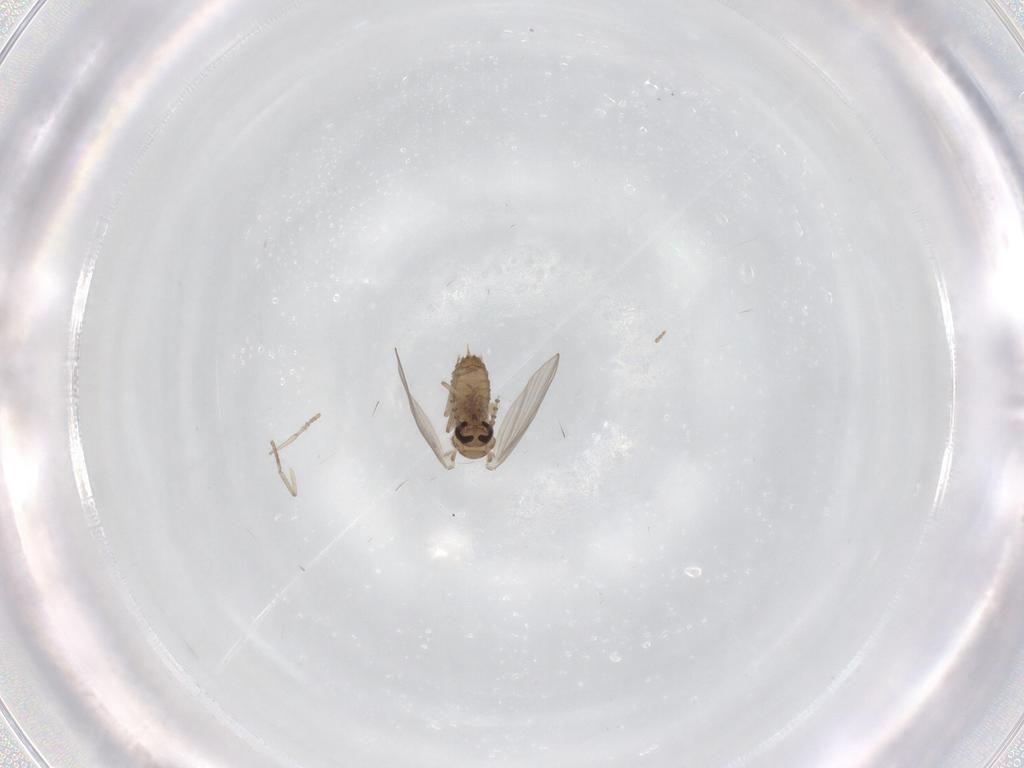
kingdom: Animalia
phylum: Arthropoda
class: Insecta
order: Diptera
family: Psychodidae
